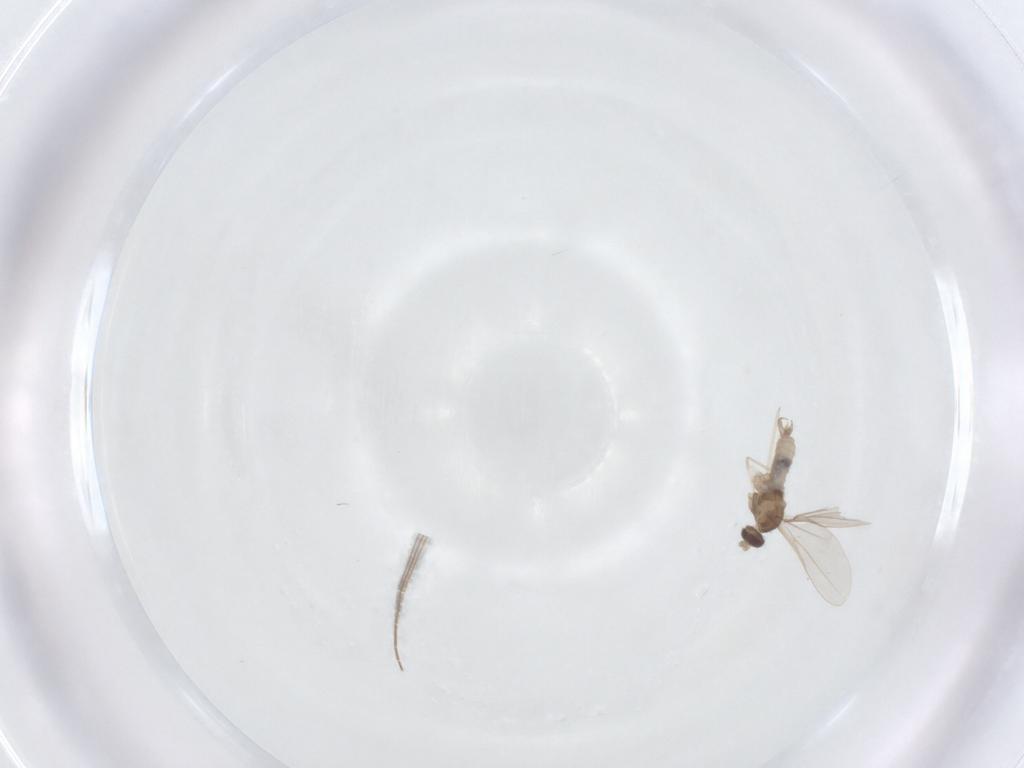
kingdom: Animalia
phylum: Arthropoda
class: Insecta
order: Diptera
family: Cecidomyiidae
